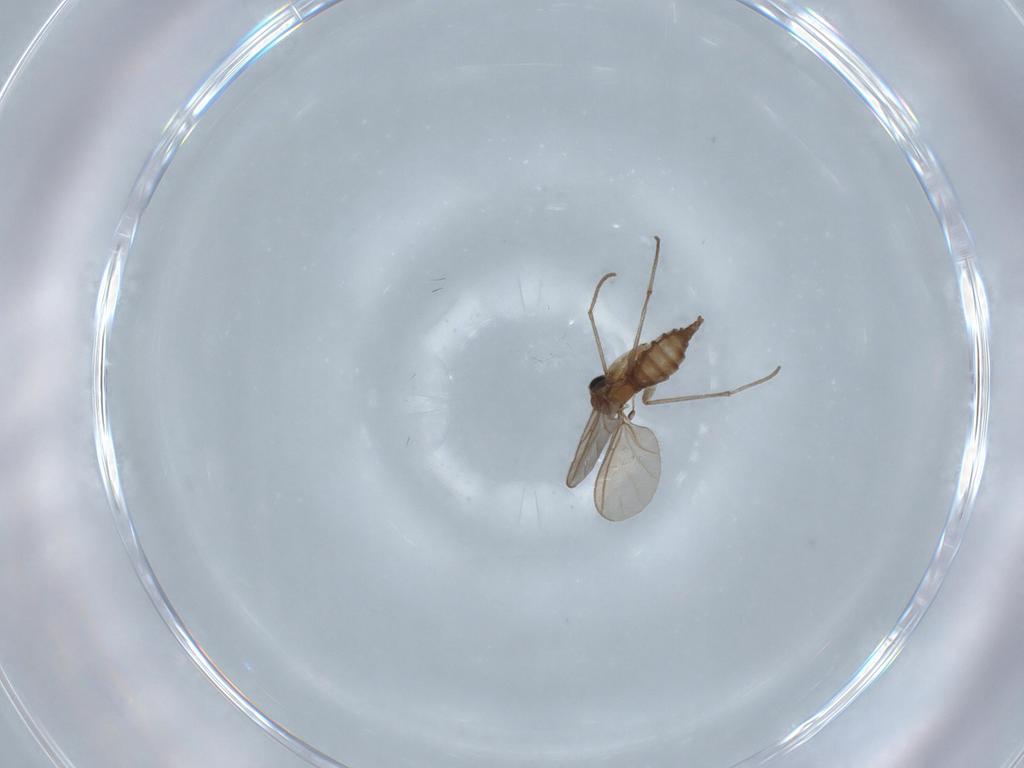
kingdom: Animalia
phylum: Arthropoda
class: Insecta
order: Diptera
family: Sciaridae
